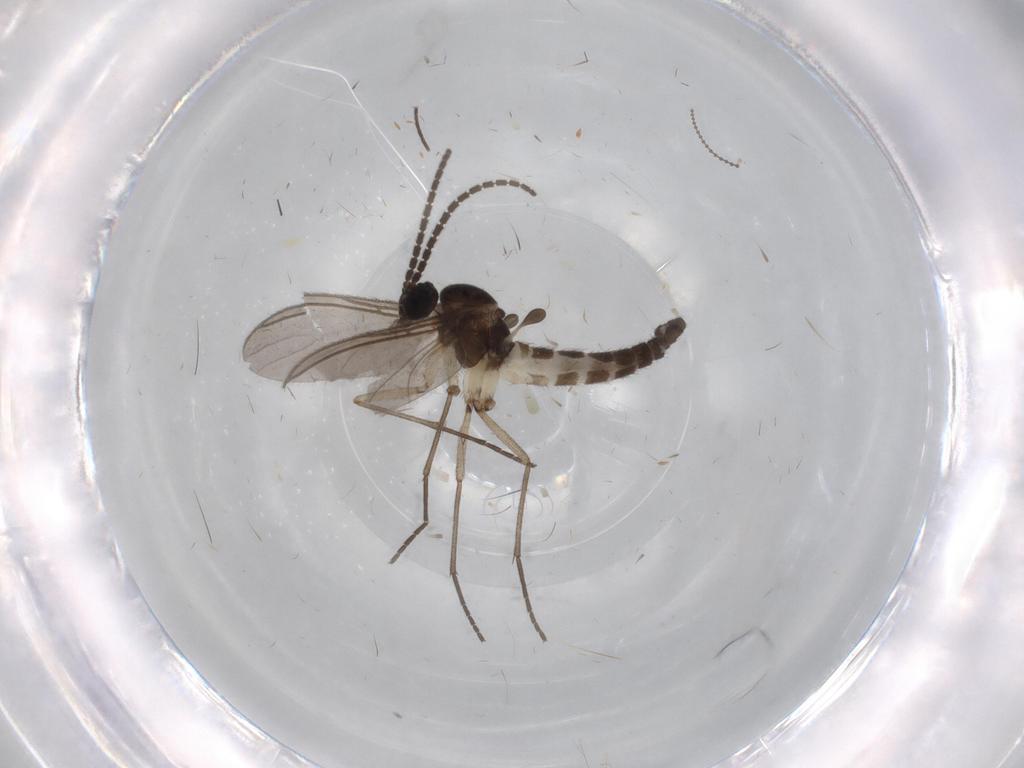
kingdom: Animalia
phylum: Arthropoda
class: Insecta
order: Diptera
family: Sciaridae
